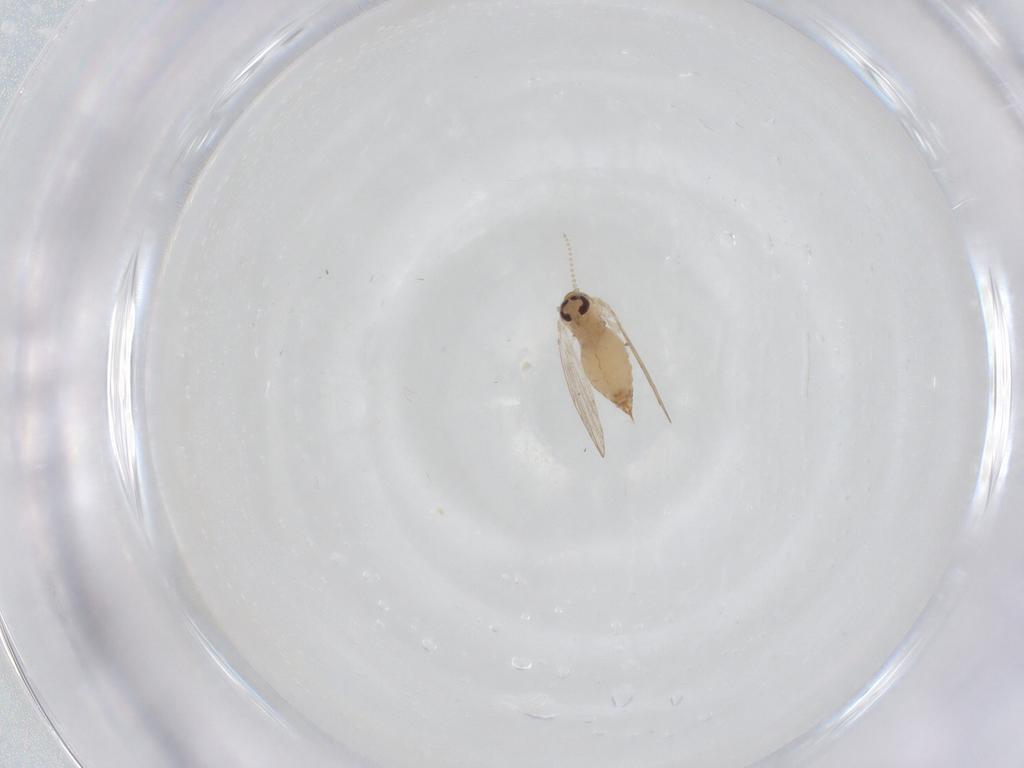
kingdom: Animalia
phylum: Arthropoda
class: Insecta
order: Diptera
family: Psychodidae
